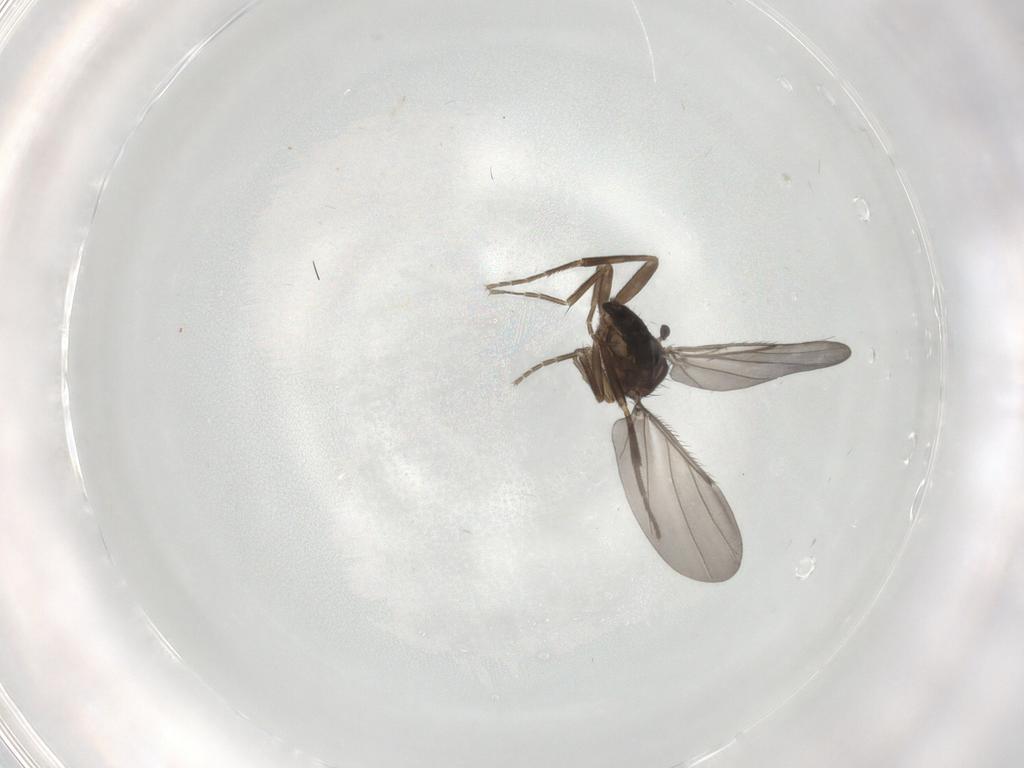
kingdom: Animalia
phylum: Arthropoda
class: Insecta
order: Diptera
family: Phoridae
